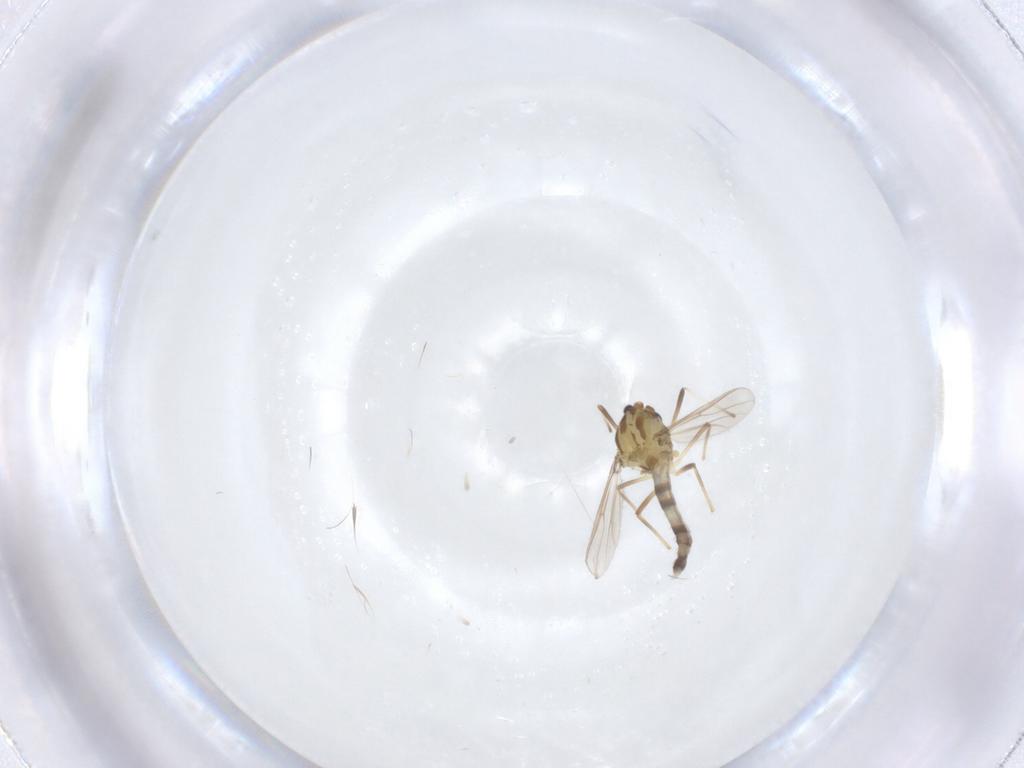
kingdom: Animalia
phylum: Arthropoda
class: Insecta
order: Diptera
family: Chironomidae
